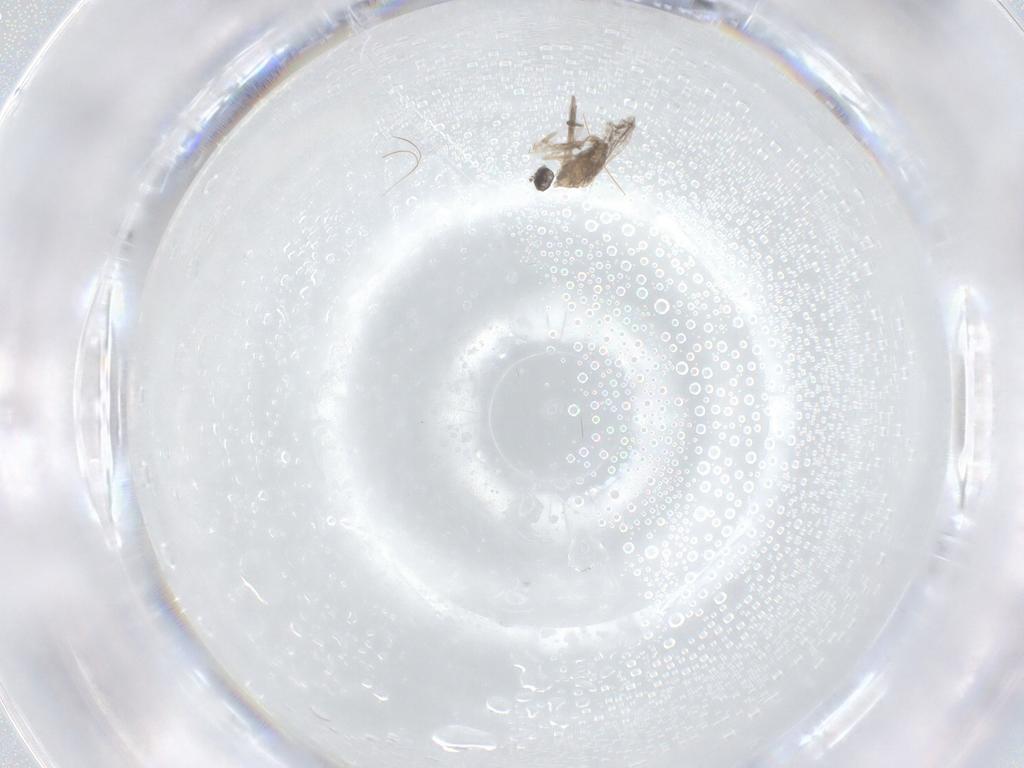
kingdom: Animalia
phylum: Arthropoda
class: Insecta
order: Diptera
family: Cecidomyiidae
